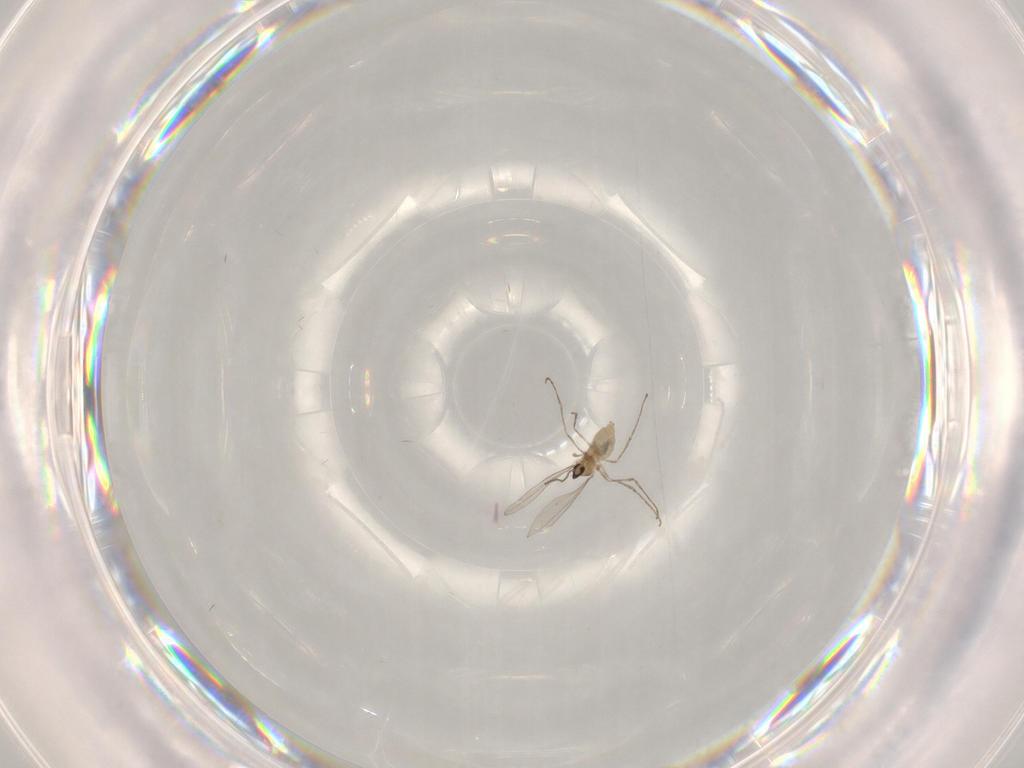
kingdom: Animalia
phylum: Arthropoda
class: Insecta
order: Diptera
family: Cecidomyiidae
